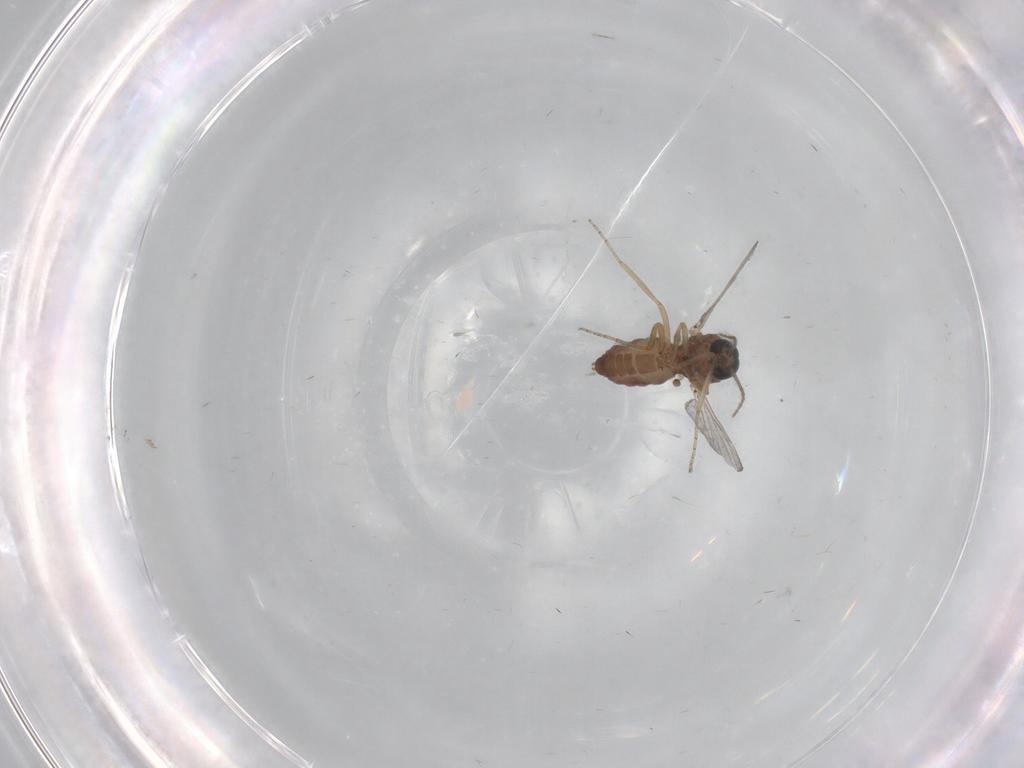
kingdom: Animalia
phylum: Arthropoda
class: Insecta
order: Diptera
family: Ceratopogonidae
